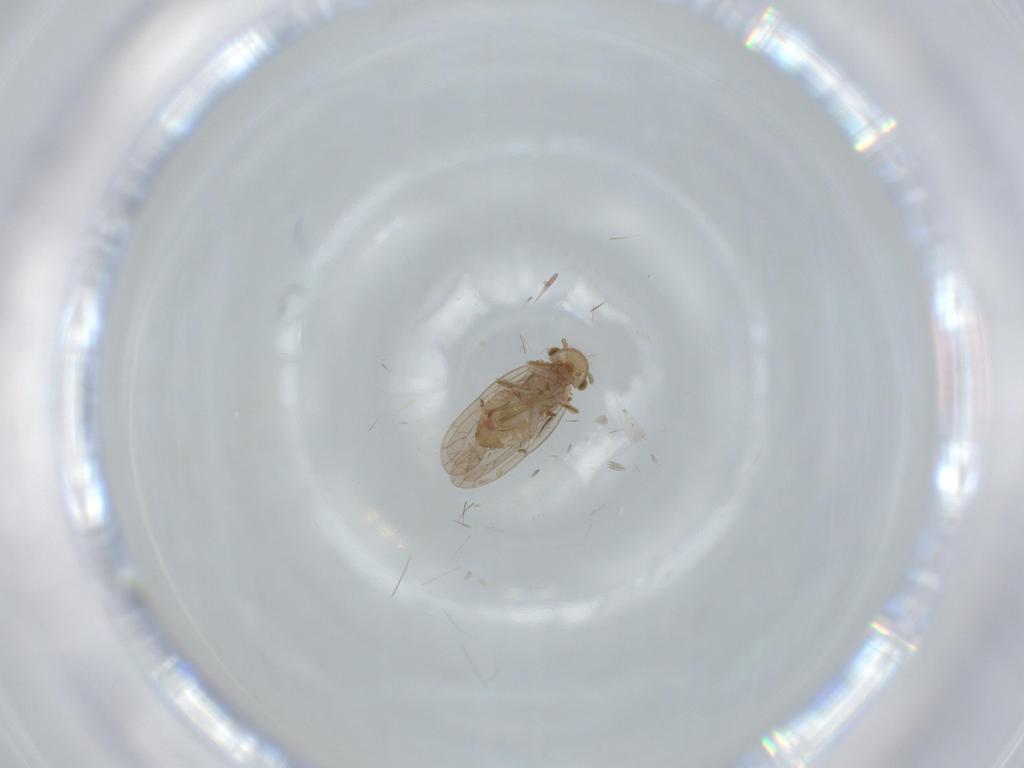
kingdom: Animalia
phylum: Arthropoda
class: Insecta
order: Psocodea
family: Ectopsocidae
